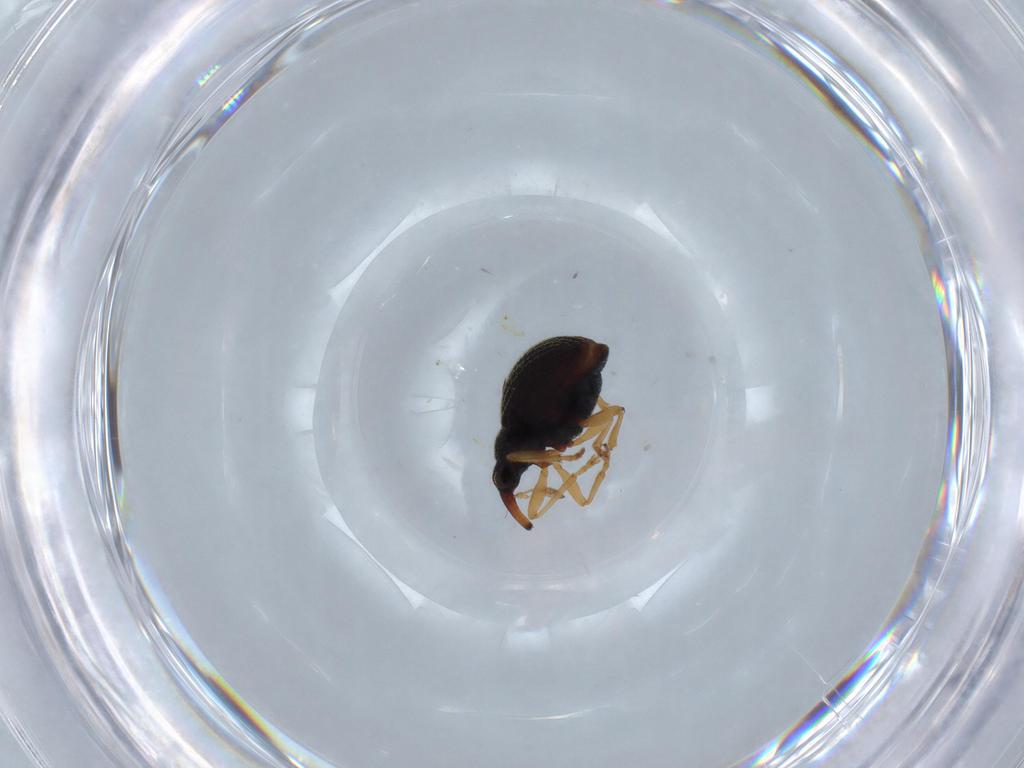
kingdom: Animalia
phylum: Arthropoda
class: Insecta
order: Coleoptera
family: Brentidae
